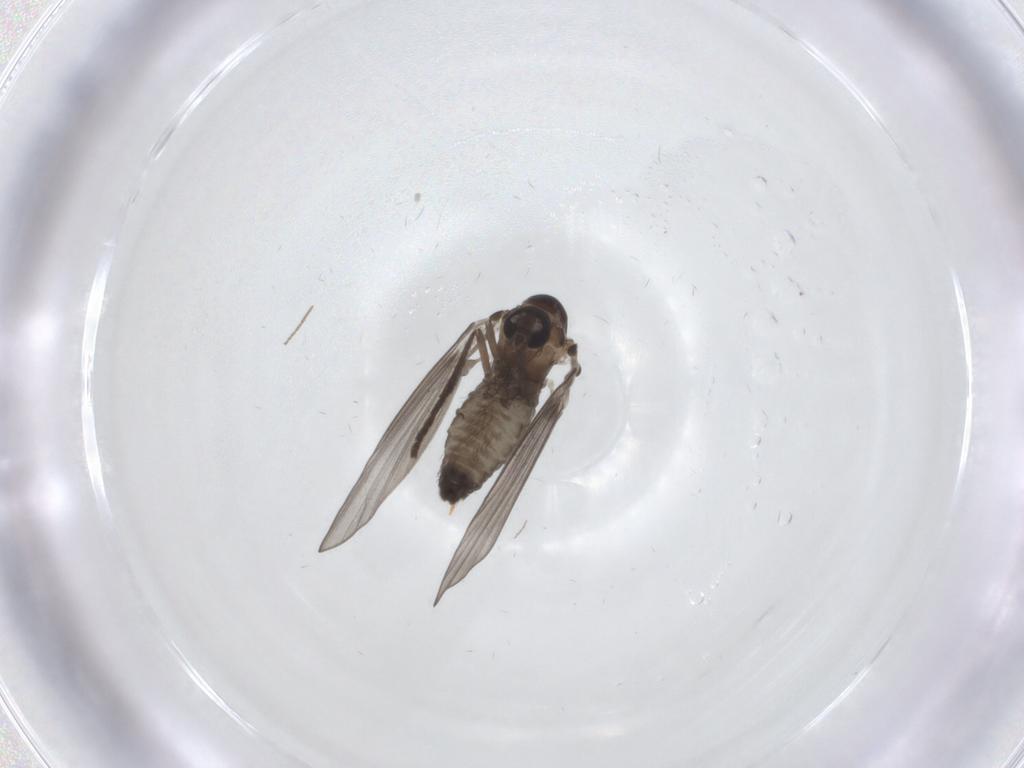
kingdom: Animalia
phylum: Arthropoda
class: Insecta
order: Diptera
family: Psychodidae
